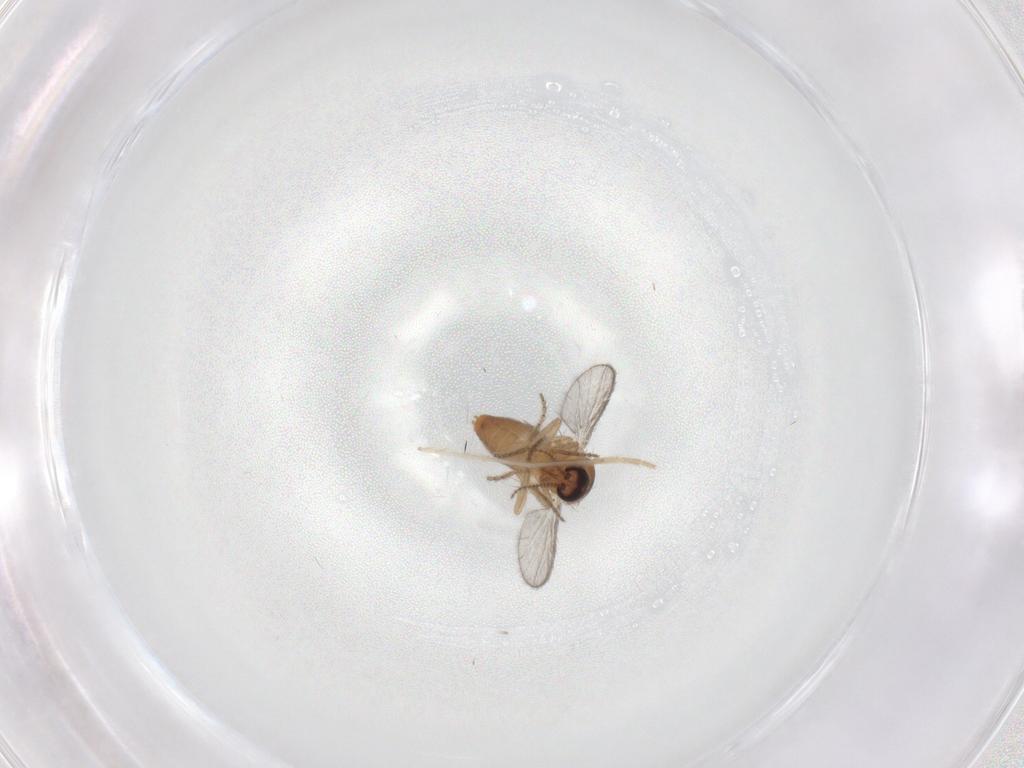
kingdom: Animalia
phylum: Arthropoda
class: Insecta
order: Diptera
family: Ceratopogonidae
